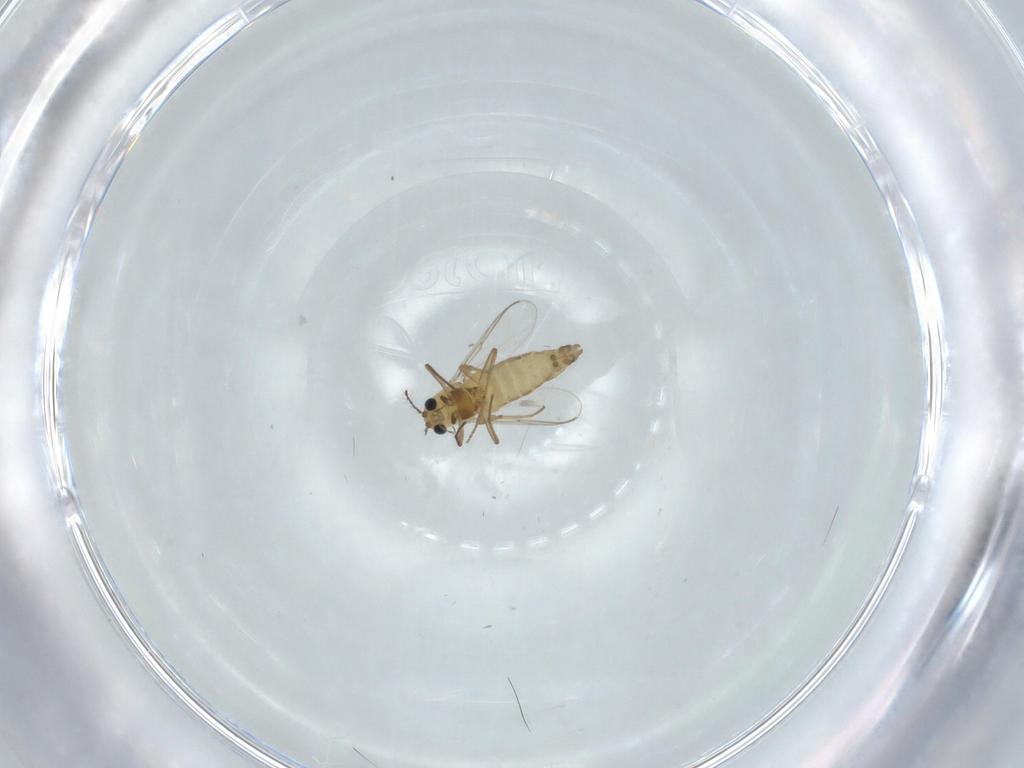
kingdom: Animalia
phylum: Arthropoda
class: Insecta
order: Diptera
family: Chironomidae
